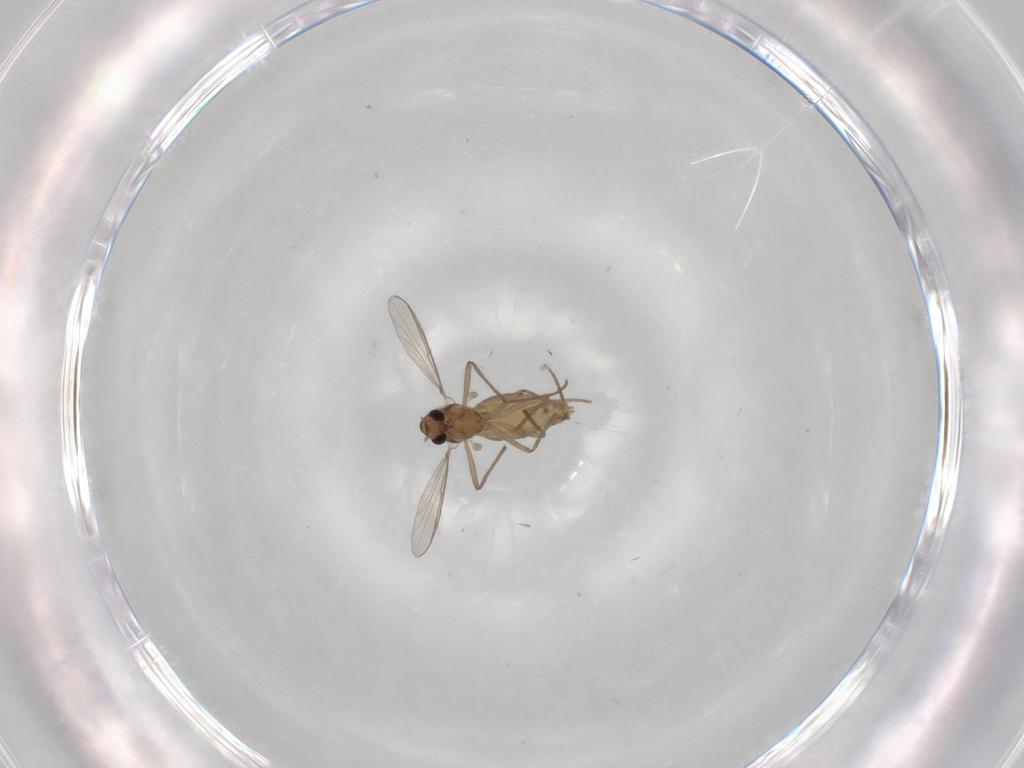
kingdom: Animalia
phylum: Arthropoda
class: Insecta
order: Diptera
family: Chironomidae
